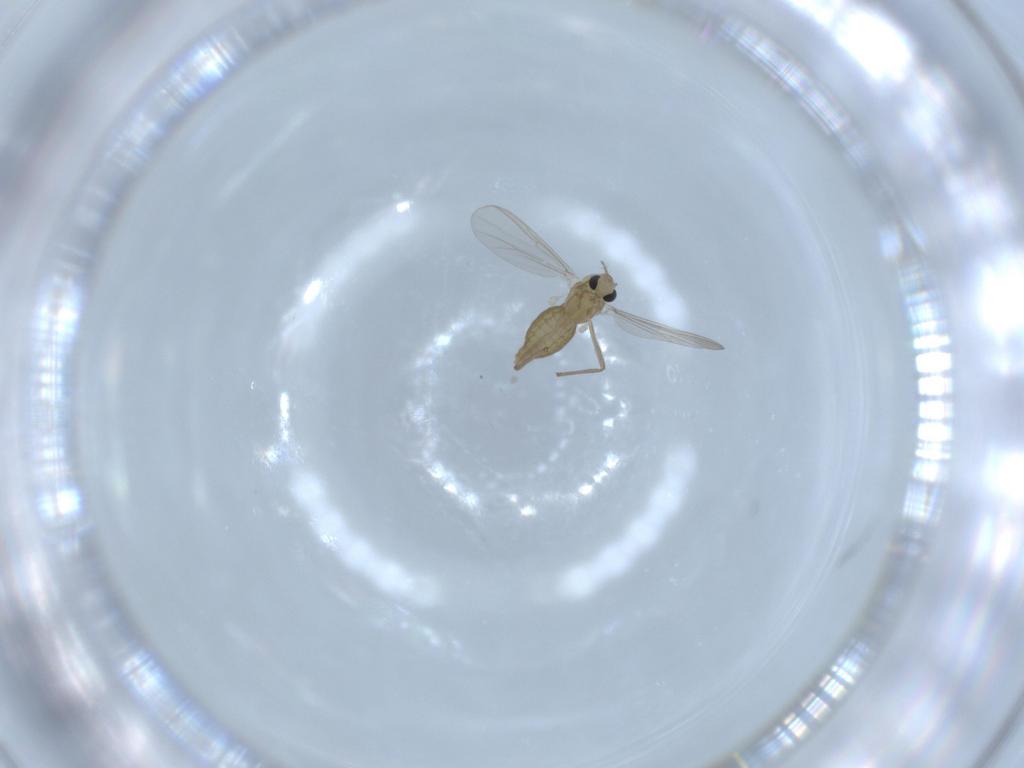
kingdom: Animalia
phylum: Arthropoda
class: Insecta
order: Diptera
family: Chironomidae
